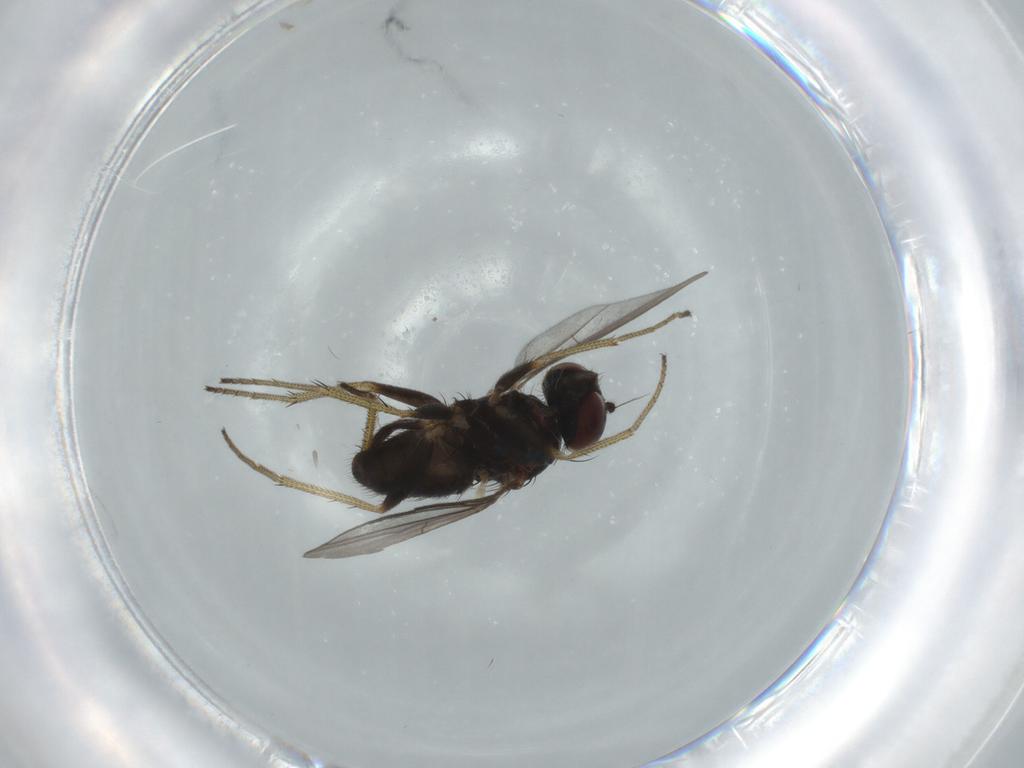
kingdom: Animalia
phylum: Arthropoda
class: Insecta
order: Diptera
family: Cecidomyiidae
